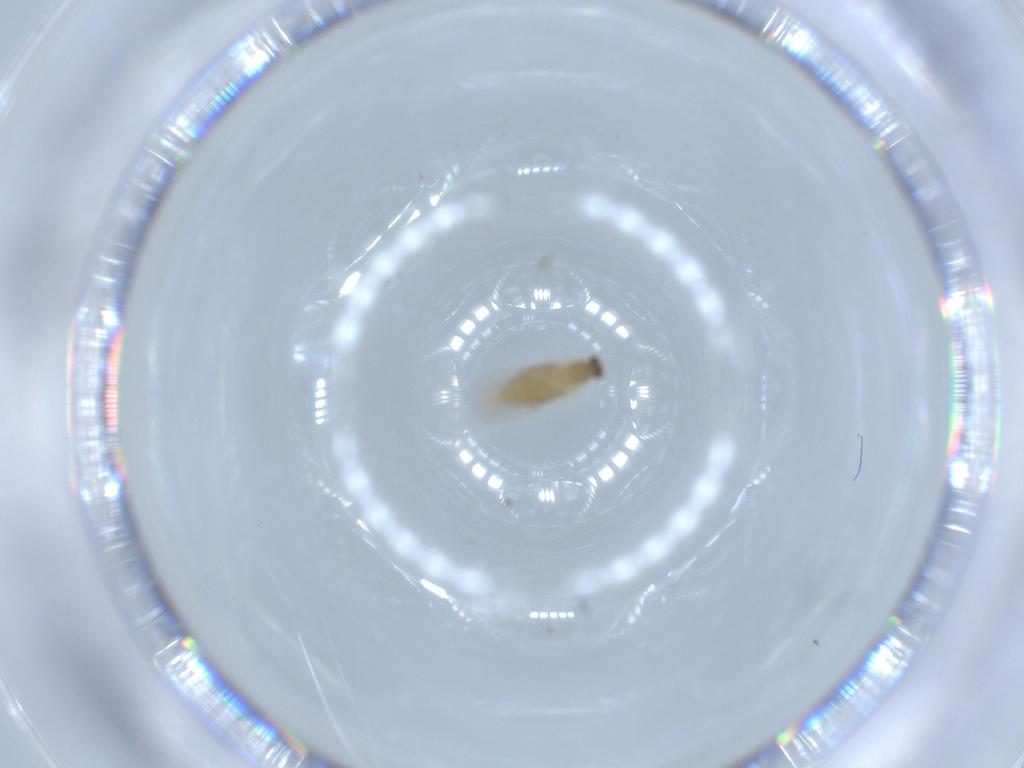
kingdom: Animalia
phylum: Arthropoda
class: Insecta
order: Diptera
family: Cecidomyiidae
